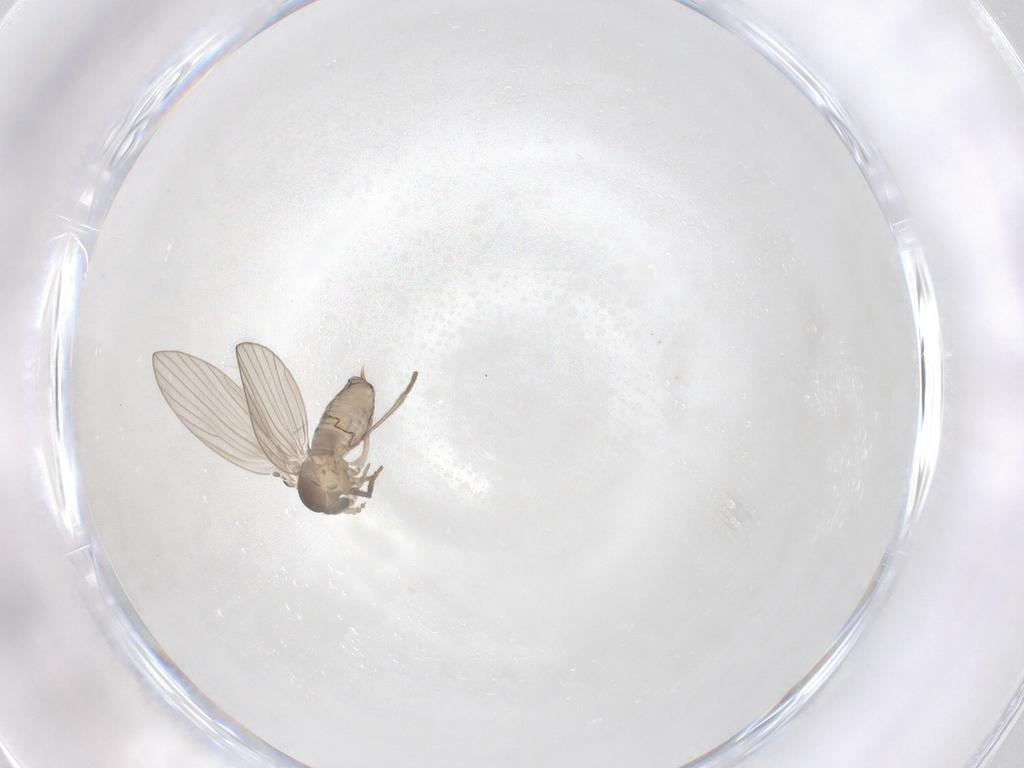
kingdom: Animalia
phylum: Arthropoda
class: Insecta
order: Diptera
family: Psychodidae
